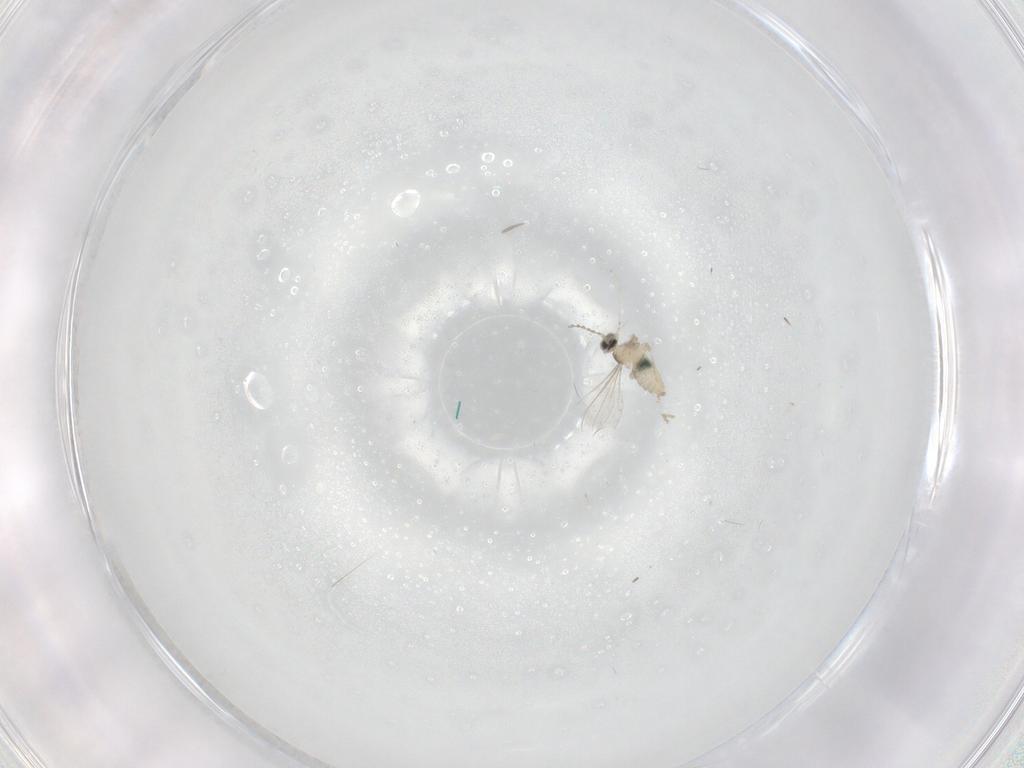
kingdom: Animalia
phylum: Arthropoda
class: Insecta
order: Diptera
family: Cecidomyiidae
